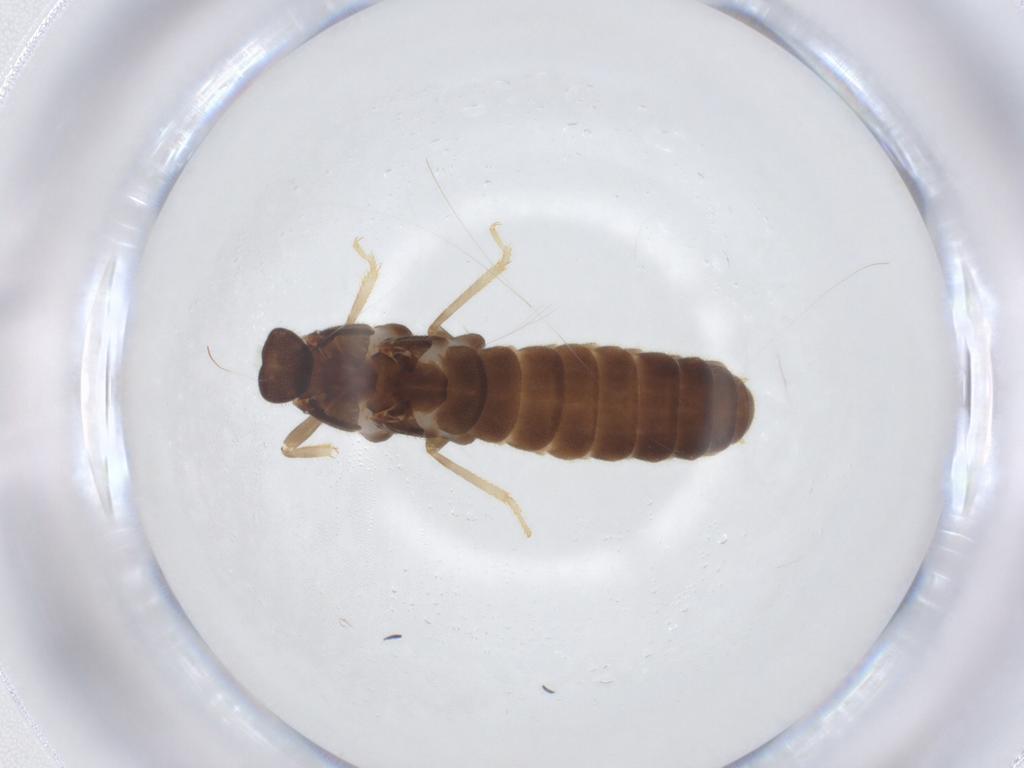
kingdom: Animalia
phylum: Arthropoda
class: Insecta
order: Blattodea
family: Rhinotermitidae
